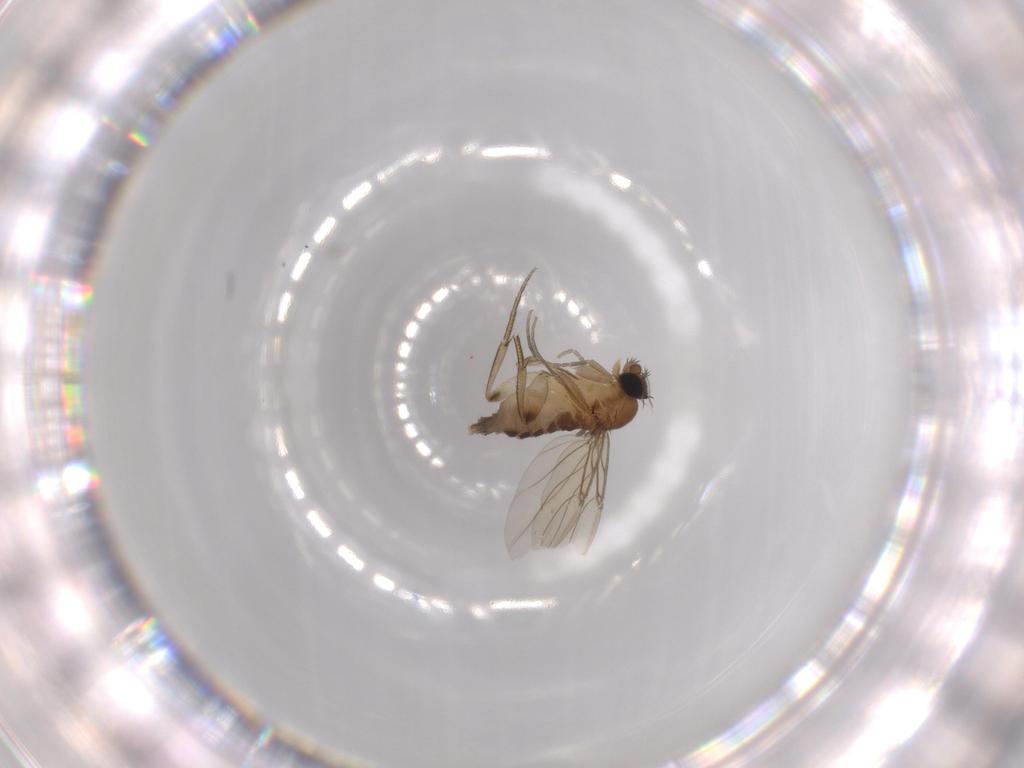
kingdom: Animalia
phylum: Arthropoda
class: Insecta
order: Diptera
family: Phoridae
